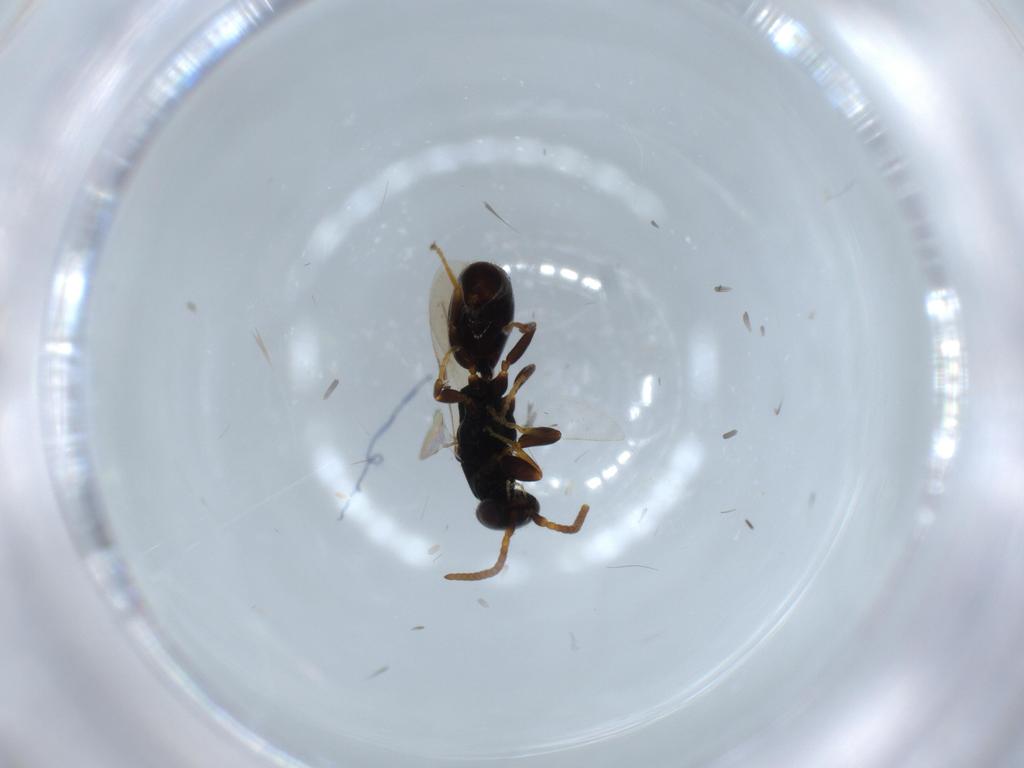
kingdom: Animalia
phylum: Arthropoda
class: Insecta
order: Hymenoptera
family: Bethylidae
